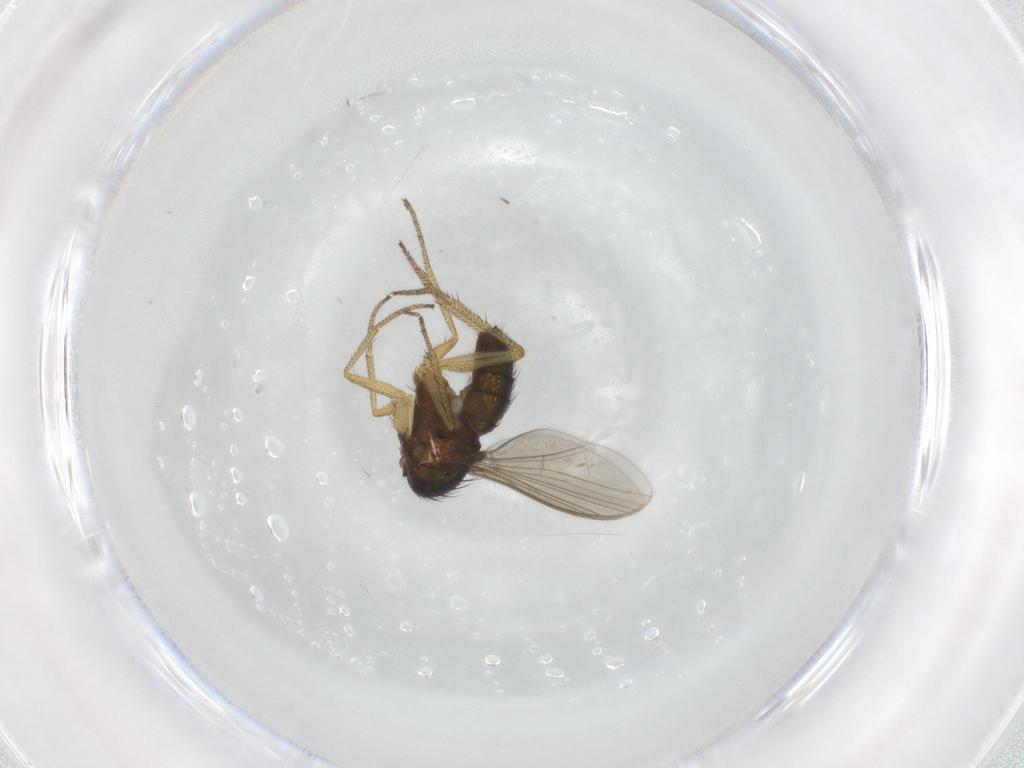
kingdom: Animalia
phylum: Arthropoda
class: Insecta
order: Diptera
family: Dolichopodidae
